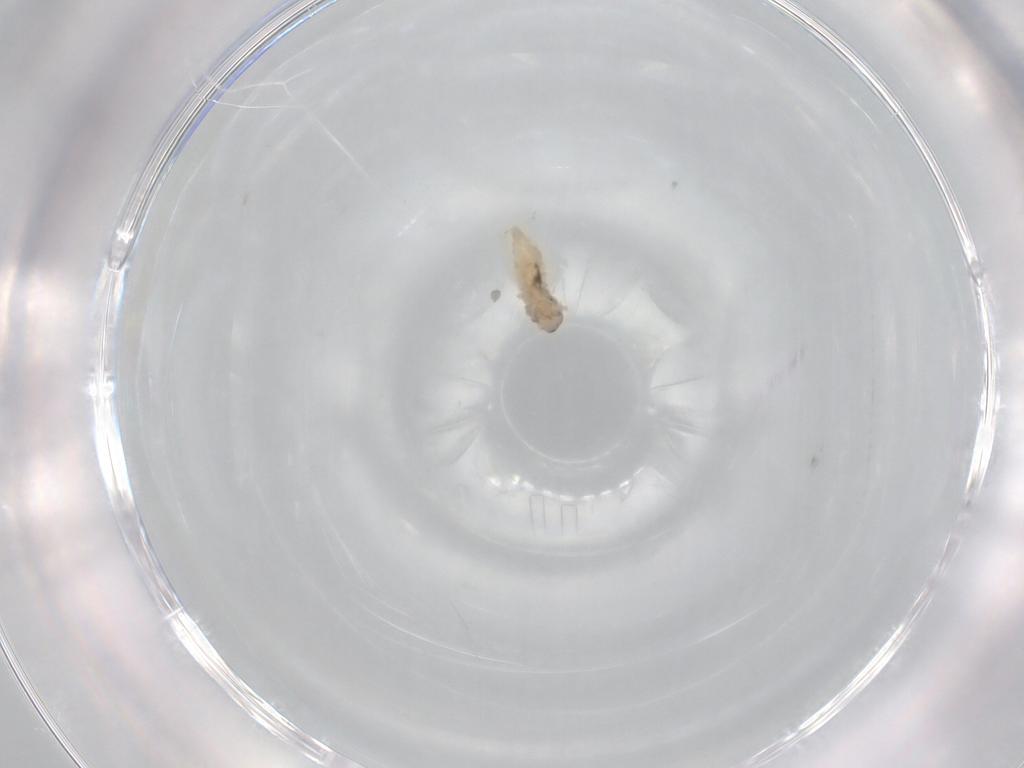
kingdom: Animalia
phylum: Arthropoda
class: Insecta
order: Diptera
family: Cecidomyiidae
